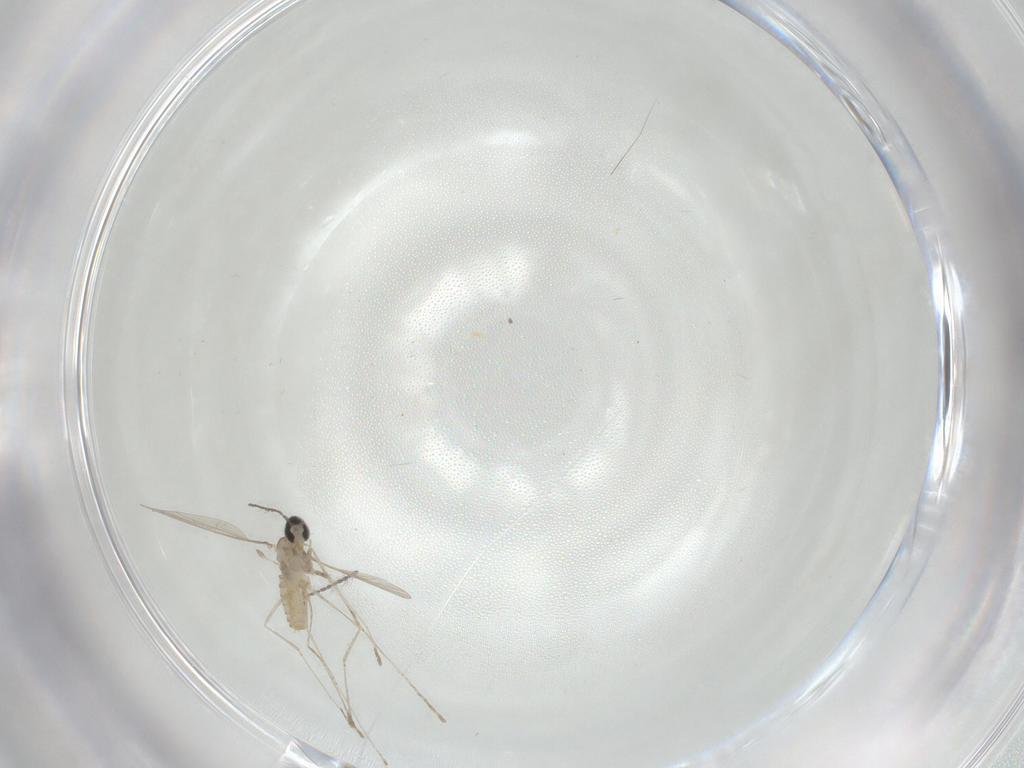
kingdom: Animalia
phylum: Arthropoda
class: Insecta
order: Diptera
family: Cecidomyiidae
